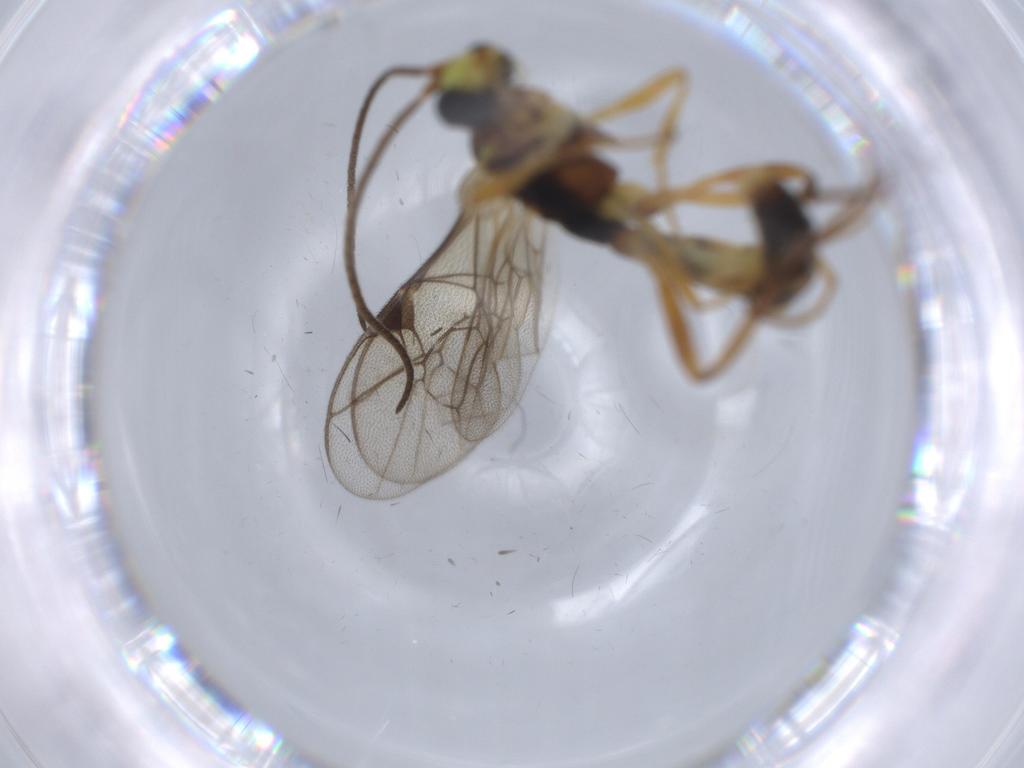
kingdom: Animalia
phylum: Arthropoda
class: Insecta
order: Hymenoptera
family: Ichneumonidae
